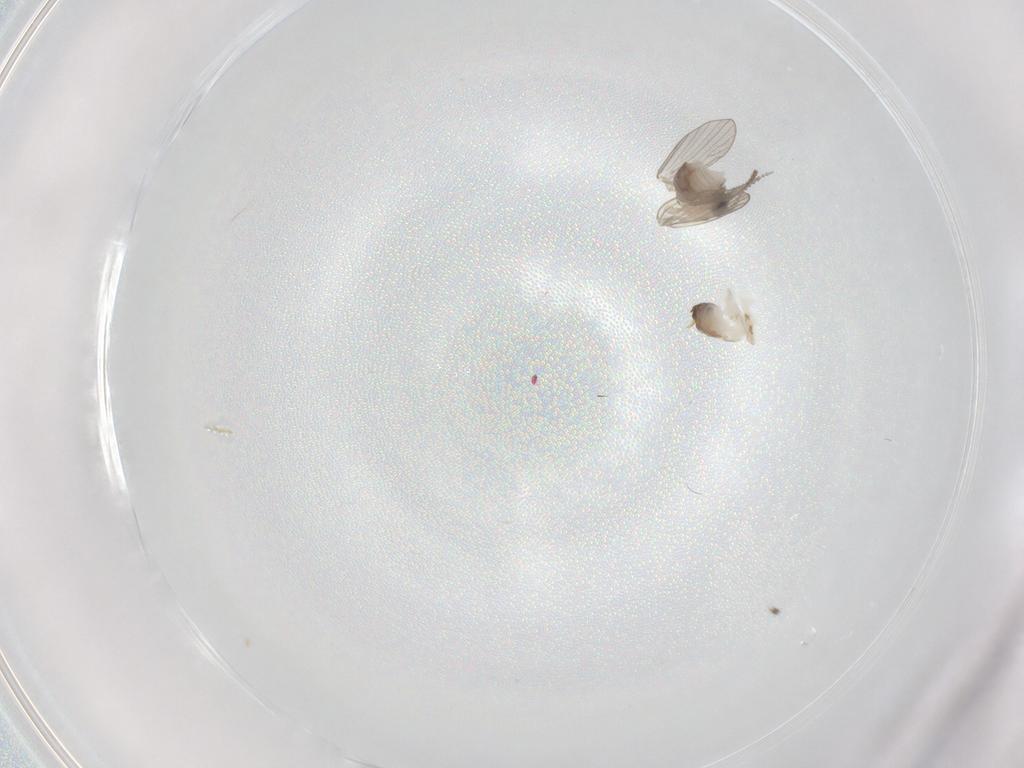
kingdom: Animalia
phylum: Arthropoda
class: Insecta
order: Diptera
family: Psychodidae
